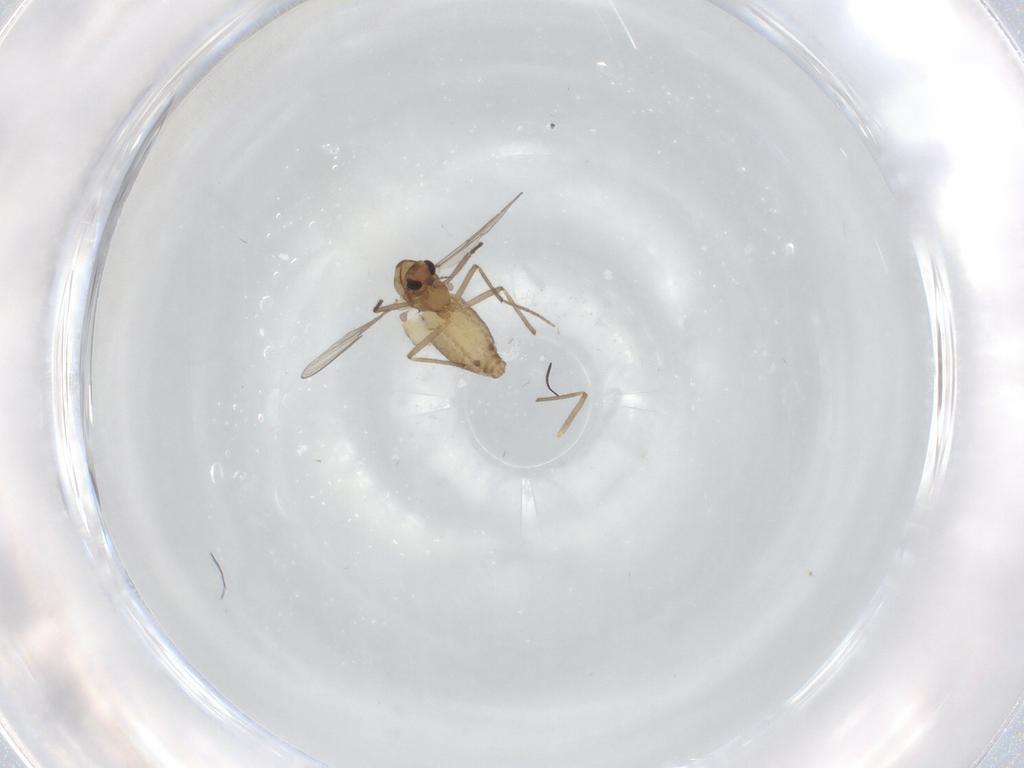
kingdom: Animalia
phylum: Arthropoda
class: Insecta
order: Diptera
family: Chironomidae
